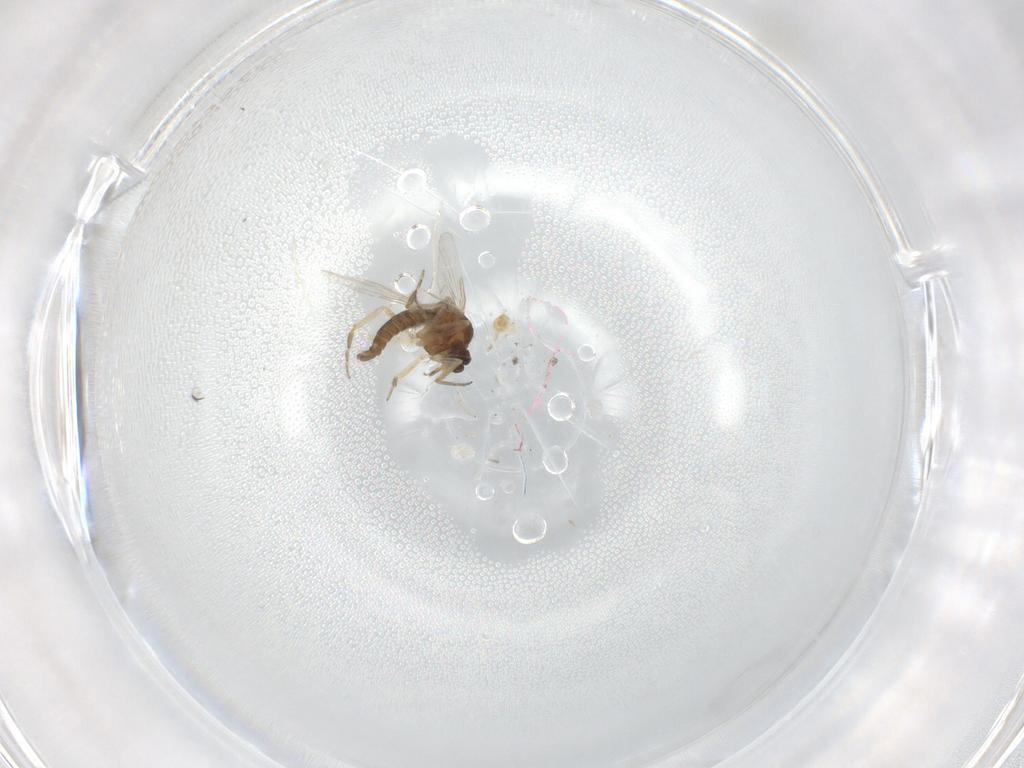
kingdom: Animalia
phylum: Arthropoda
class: Insecta
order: Diptera
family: Ceratopogonidae
